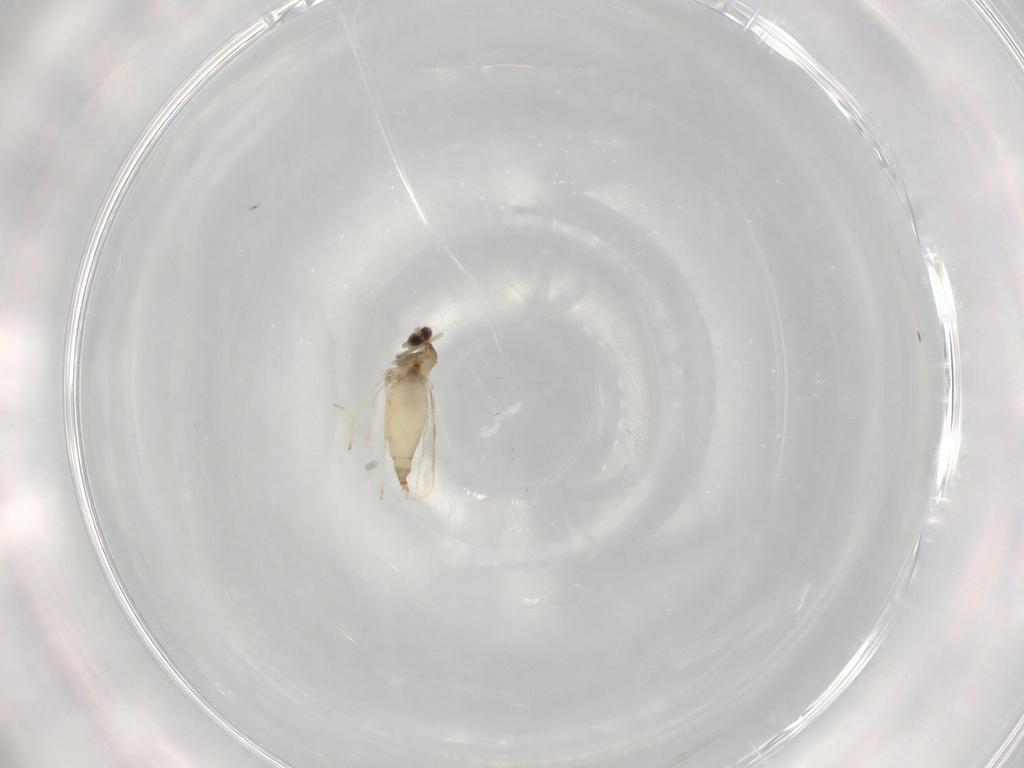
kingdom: Animalia
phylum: Arthropoda
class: Insecta
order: Diptera
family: Cecidomyiidae
